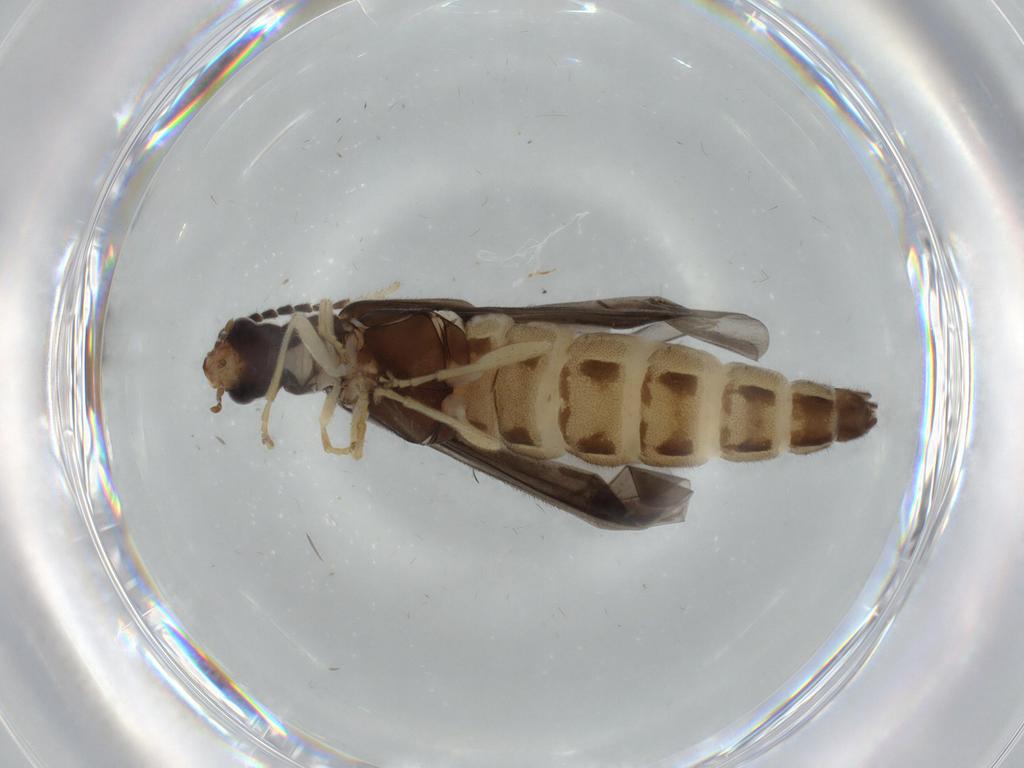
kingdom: Animalia
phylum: Arthropoda
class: Insecta
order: Coleoptera
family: Cantharidae
